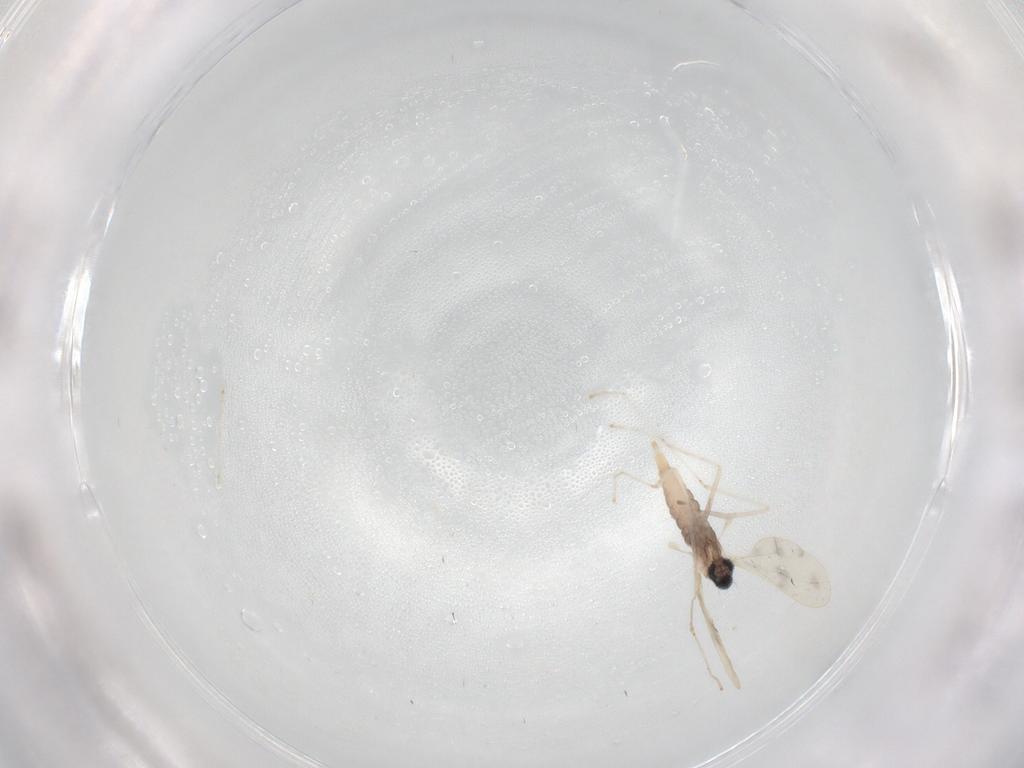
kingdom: Animalia
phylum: Arthropoda
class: Insecta
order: Diptera
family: Cecidomyiidae
